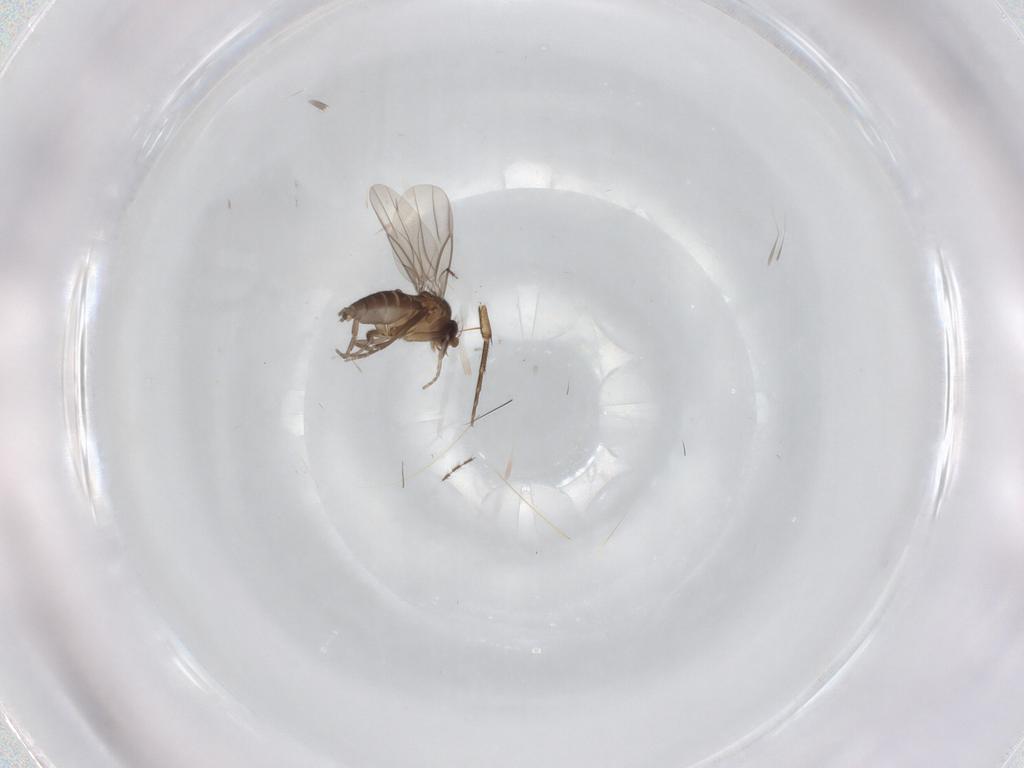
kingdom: Animalia
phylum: Arthropoda
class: Insecta
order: Diptera
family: Phoridae
